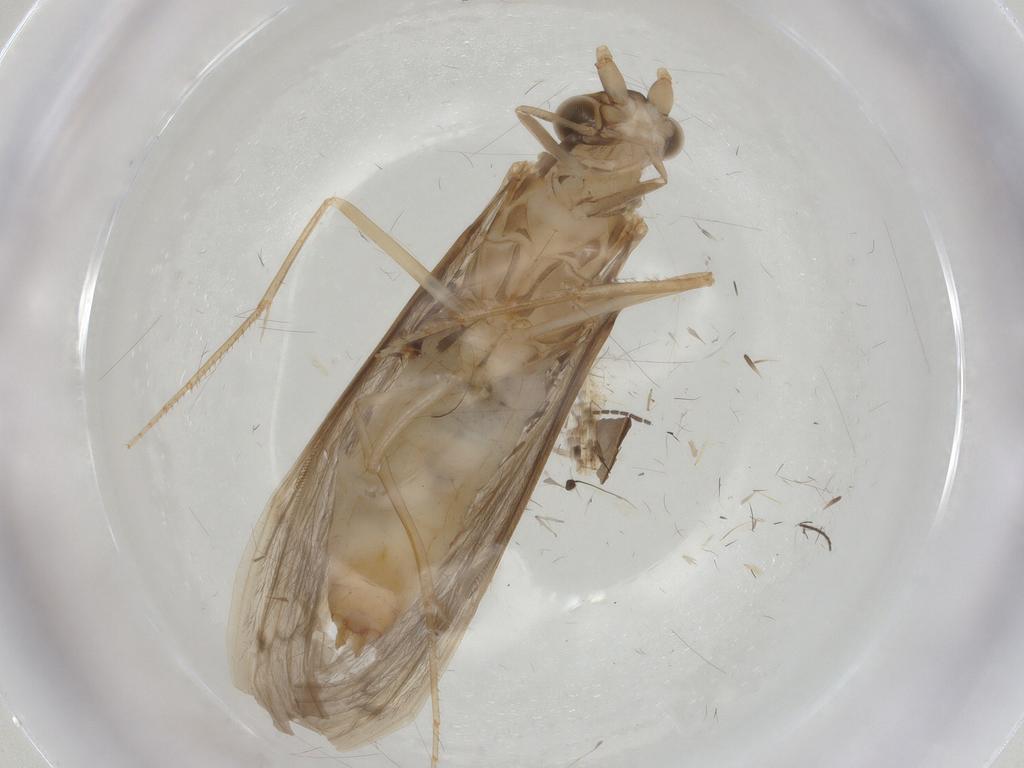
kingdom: Animalia
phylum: Arthropoda
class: Insecta
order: Trichoptera
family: Leptoceridae
